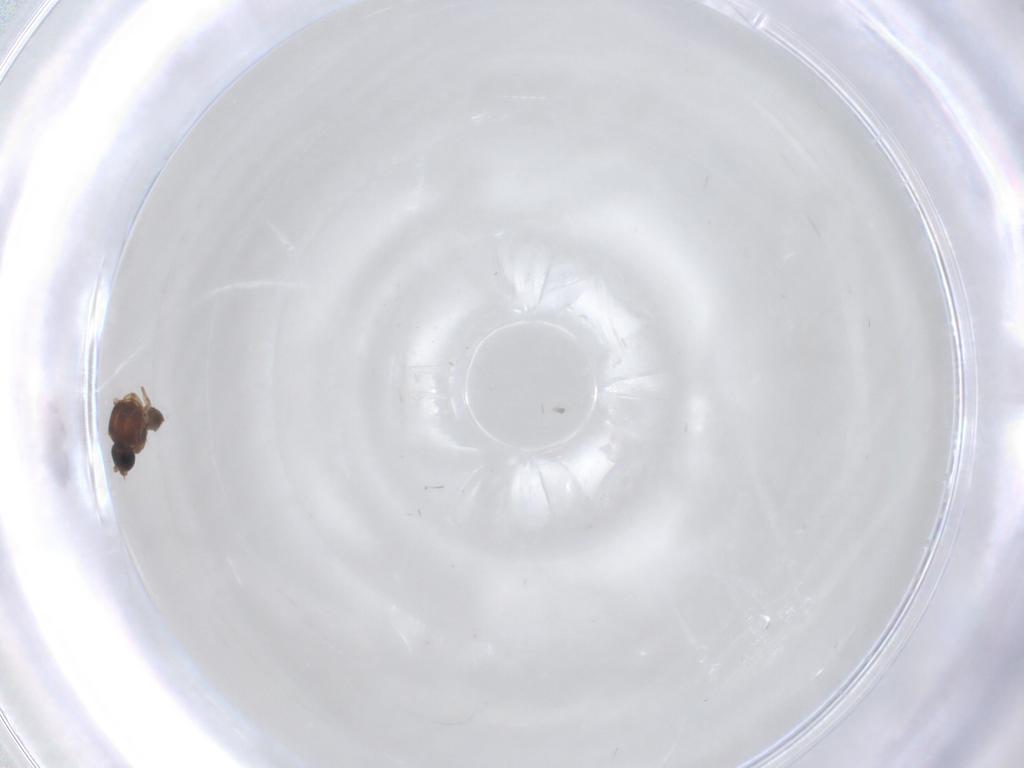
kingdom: Animalia
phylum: Arthropoda
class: Insecta
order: Diptera
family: Ceratopogonidae
